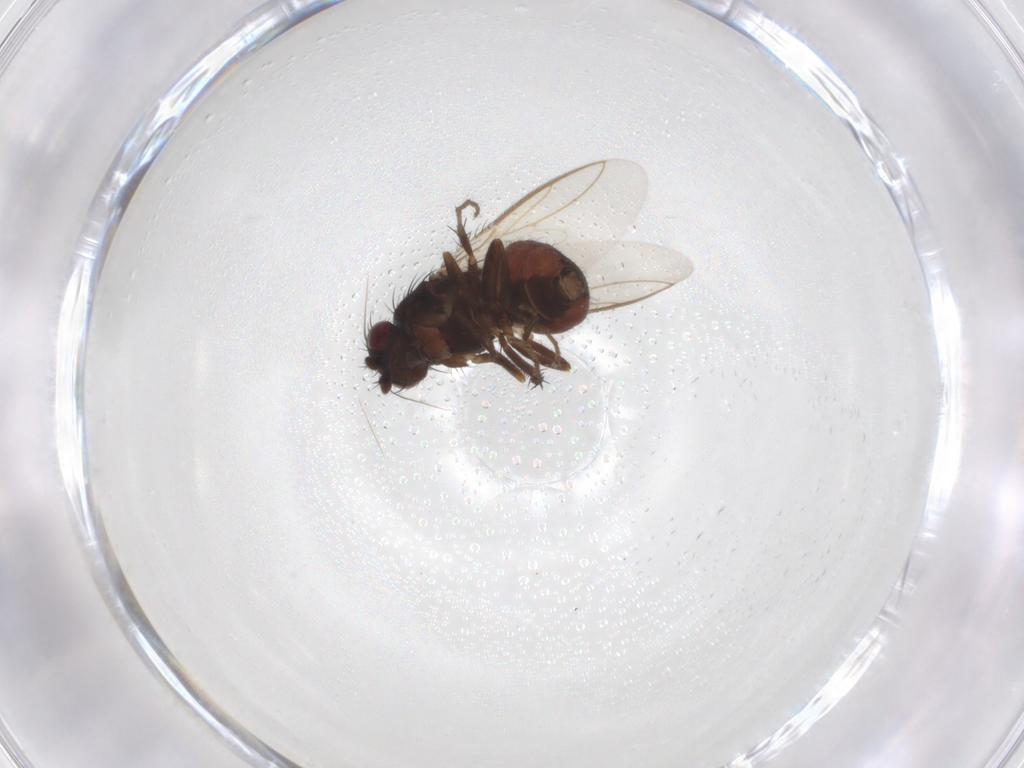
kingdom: Animalia
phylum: Arthropoda
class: Insecta
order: Diptera
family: Sphaeroceridae
